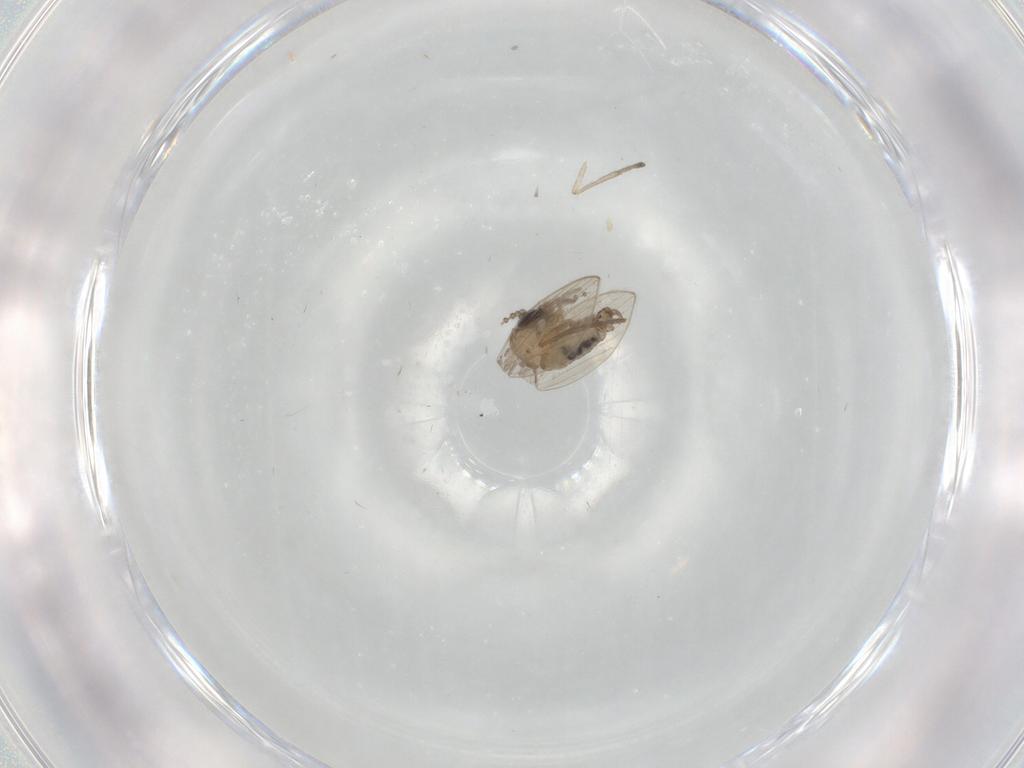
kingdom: Animalia
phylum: Arthropoda
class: Insecta
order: Diptera
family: Psychodidae
